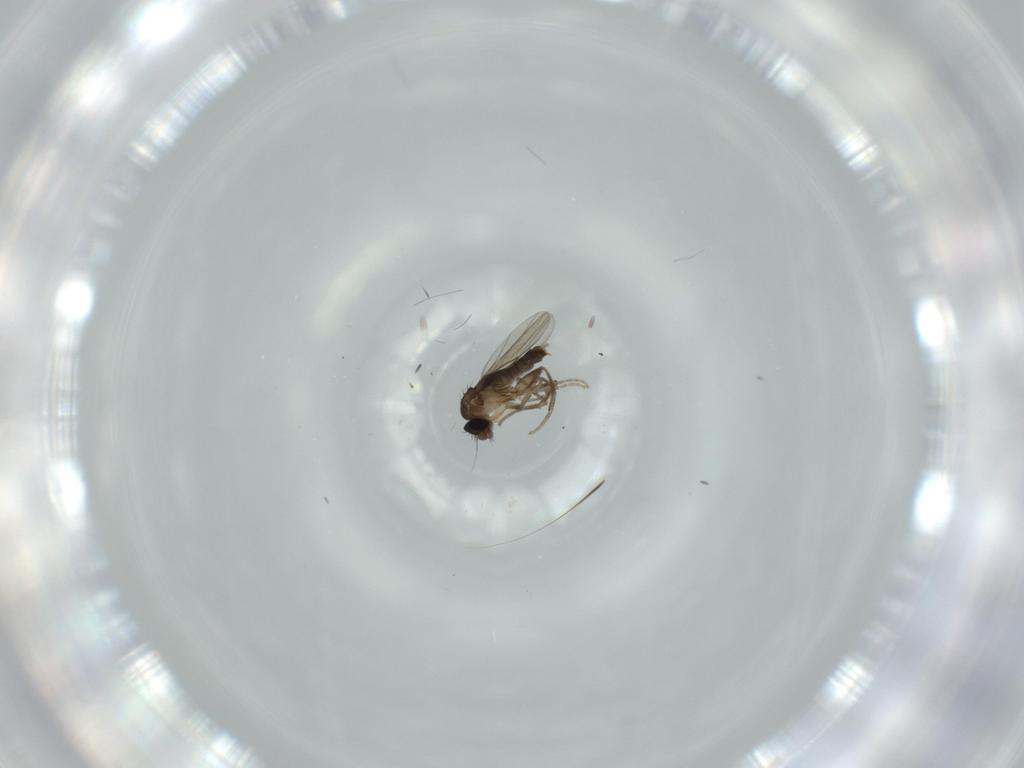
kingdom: Animalia
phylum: Arthropoda
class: Insecta
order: Diptera
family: Phoridae
